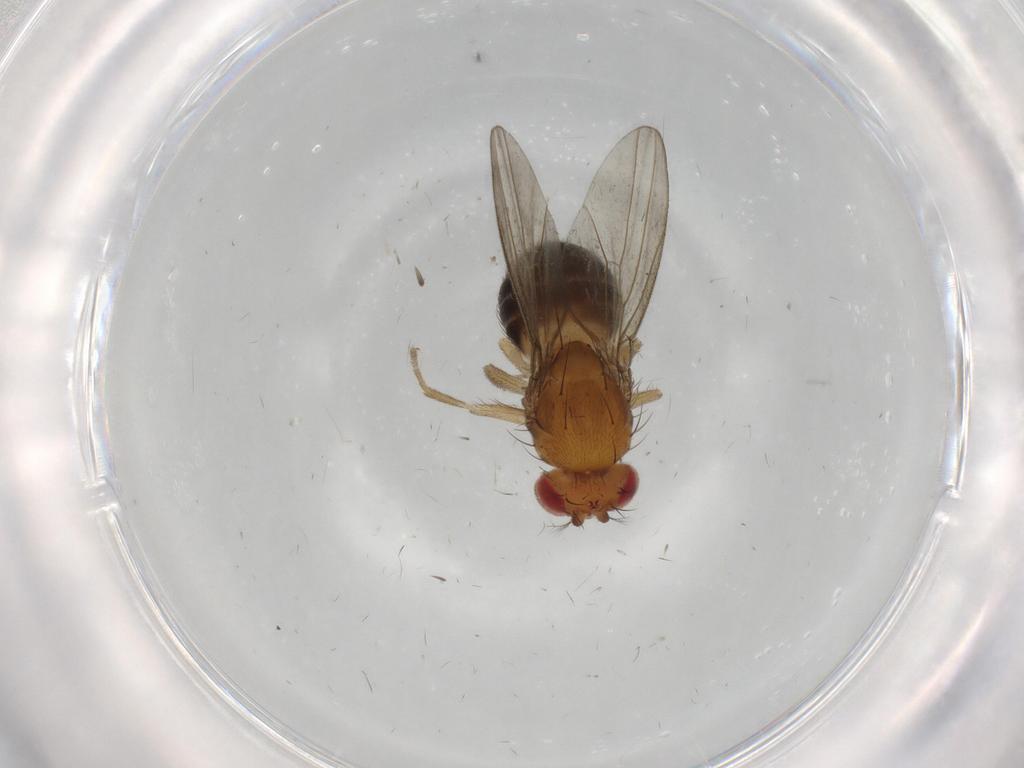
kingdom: Animalia
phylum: Arthropoda
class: Insecta
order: Diptera
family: Drosophilidae
